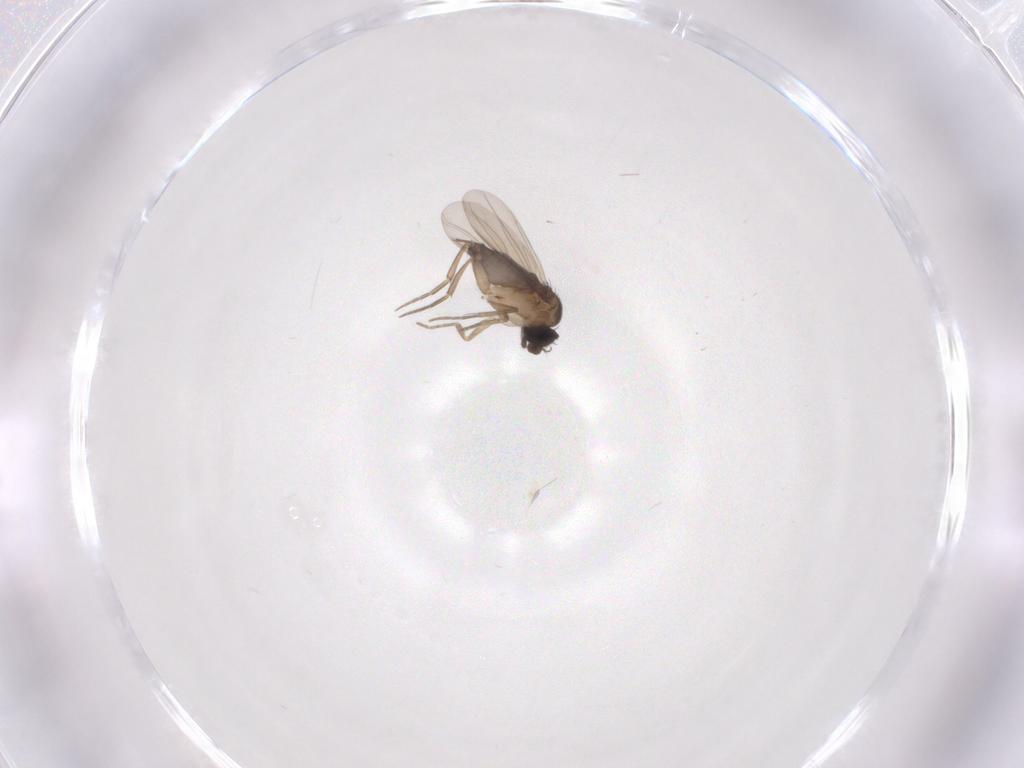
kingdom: Animalia
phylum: Arthropoda
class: Insecta
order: Diptera
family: Phoridae
